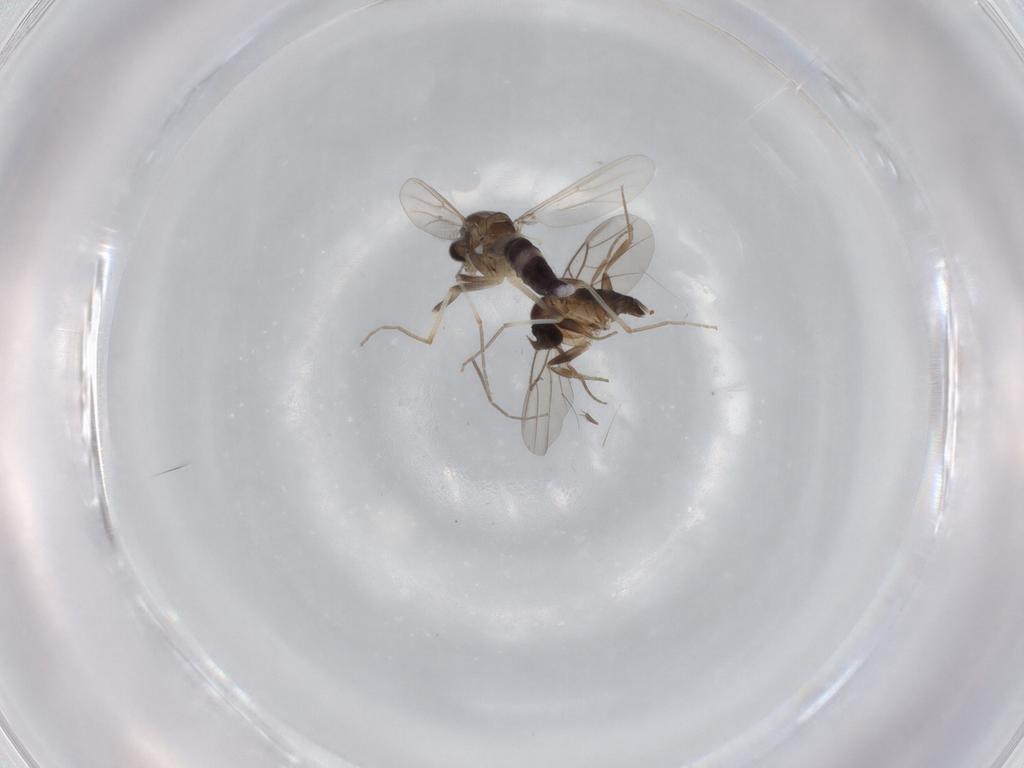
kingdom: Animalia
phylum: Arthropoda
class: Insecta
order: Diptera
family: Chironomidae
